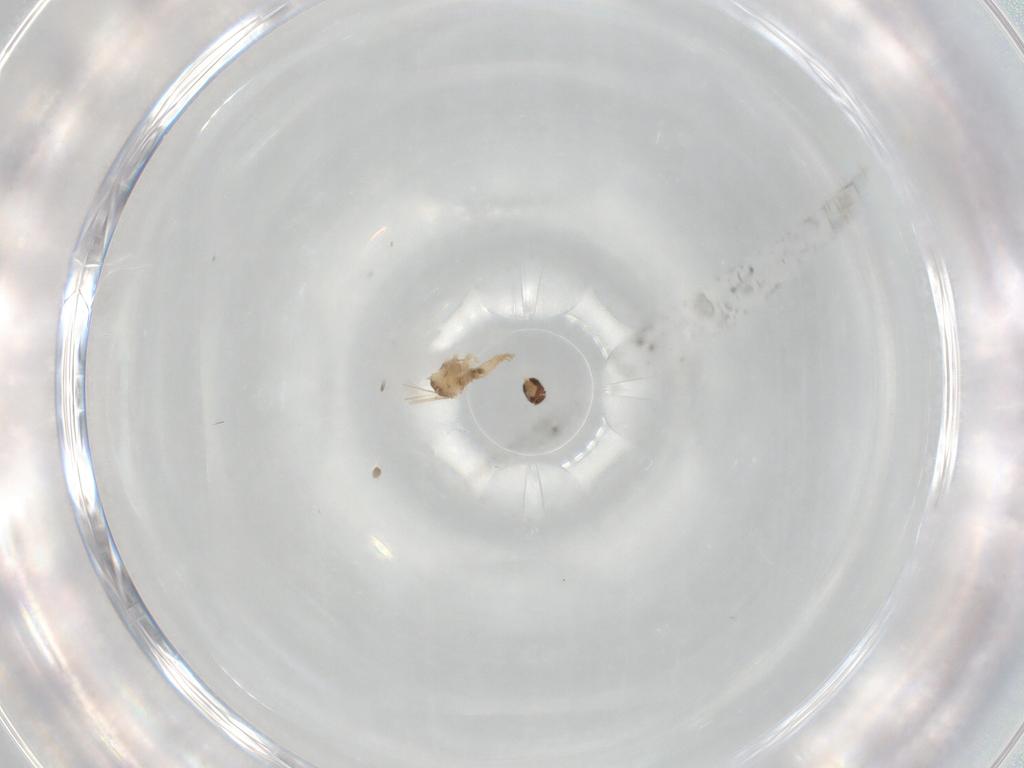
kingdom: Animalia
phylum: Arthropoda
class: Insecta
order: Diptera
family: Cecidomyiidae
